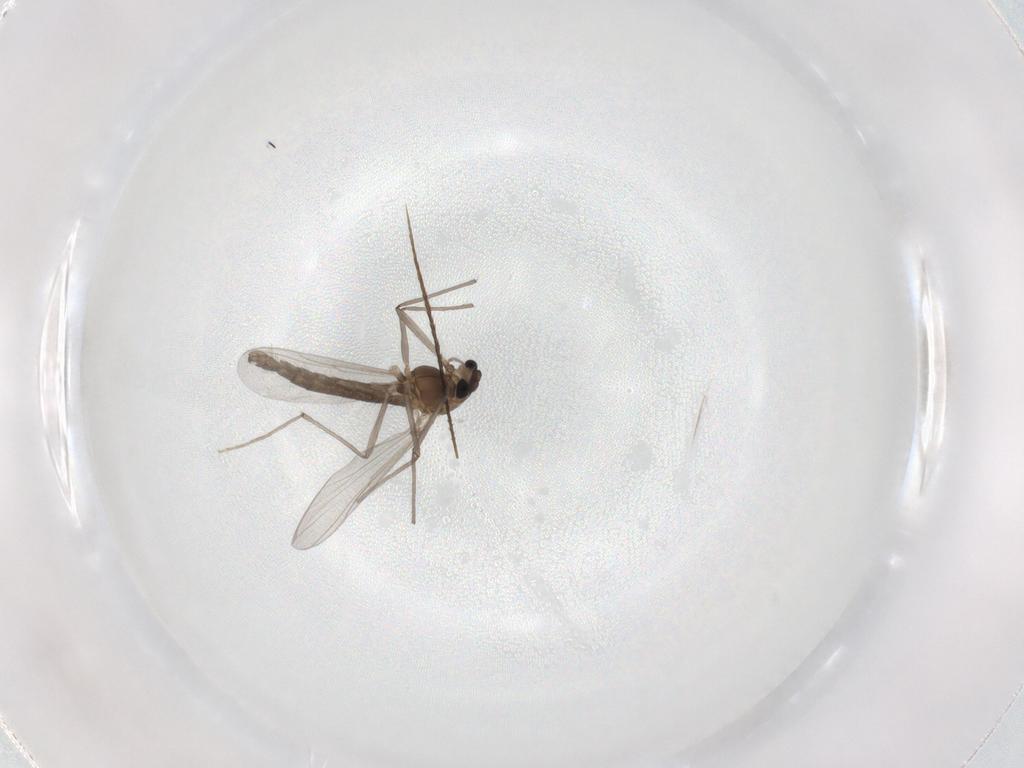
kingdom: Animalia
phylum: Arthropoda
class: Insecta
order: Diptera
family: Chironomidae
